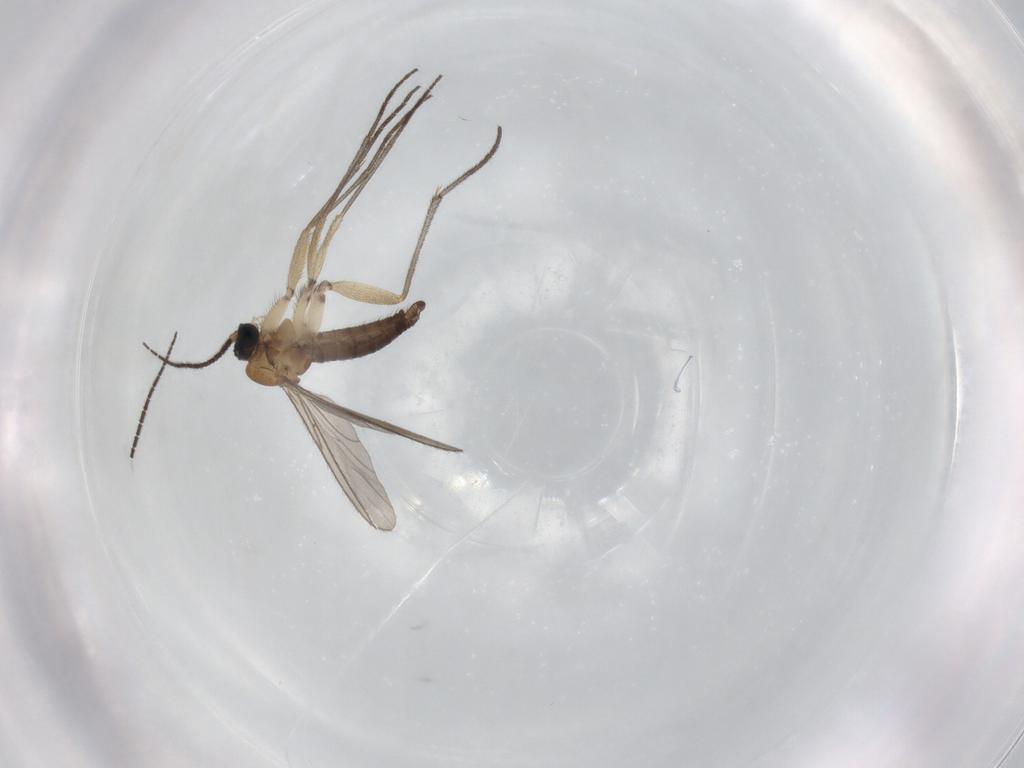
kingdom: Animalia
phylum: Arthropoda
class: Insecta
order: Diptera
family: Sciaridae
